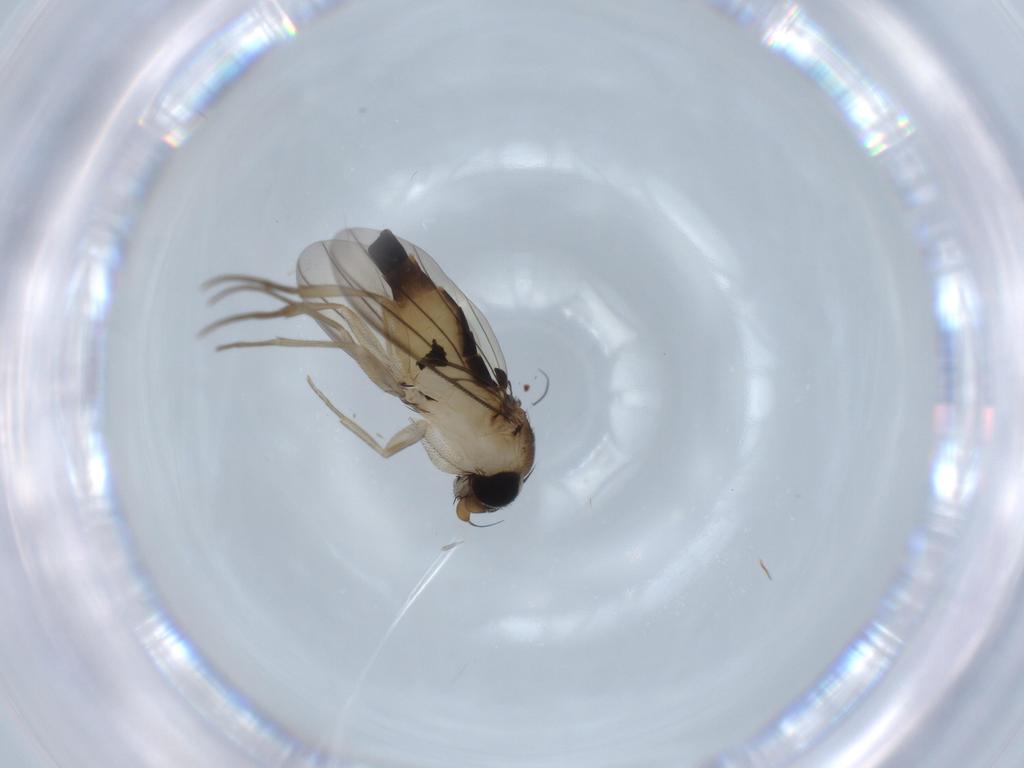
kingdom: Animalia
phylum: Arthropoda
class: Insecta
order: Diptera
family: Phoridae
